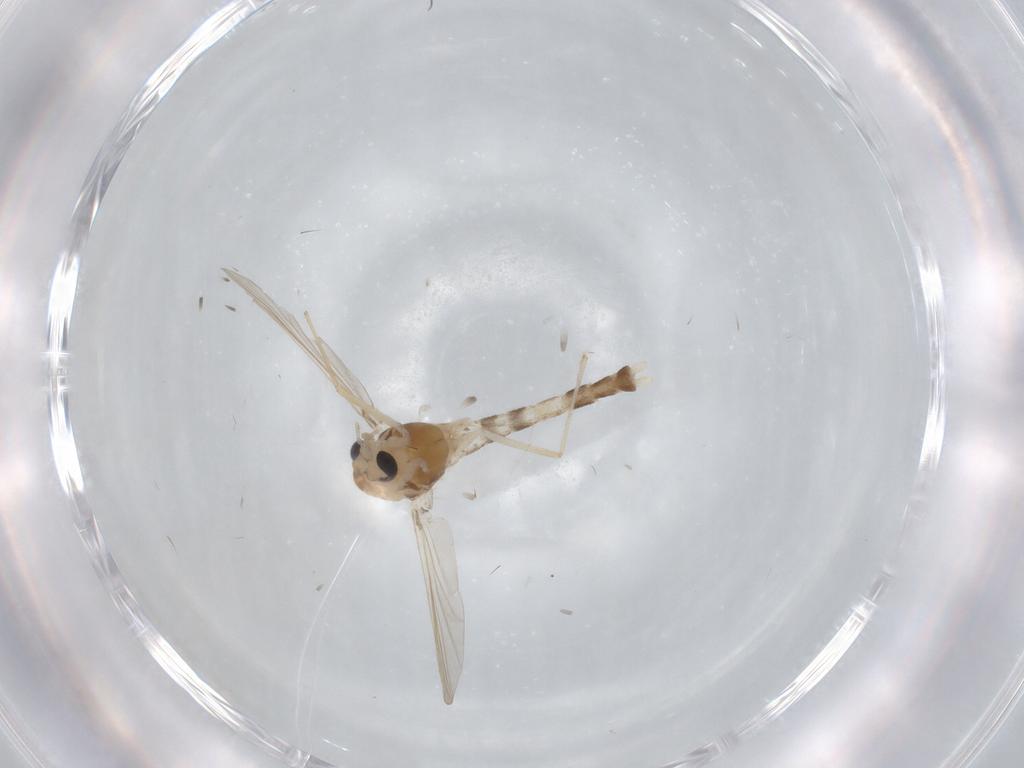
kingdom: Animalia
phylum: Arthropoda
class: Insecta
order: Diptera
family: Chironomidae
